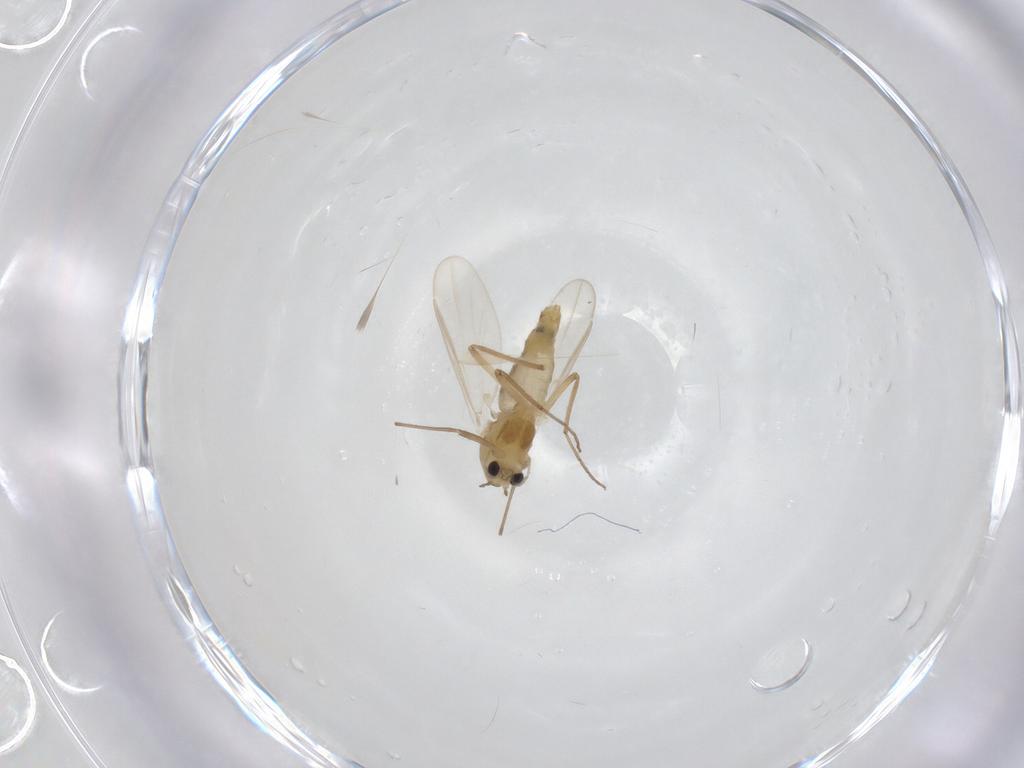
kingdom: Animalia
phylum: Arthropoda
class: Insecta
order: Diptera
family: Chironomidae
